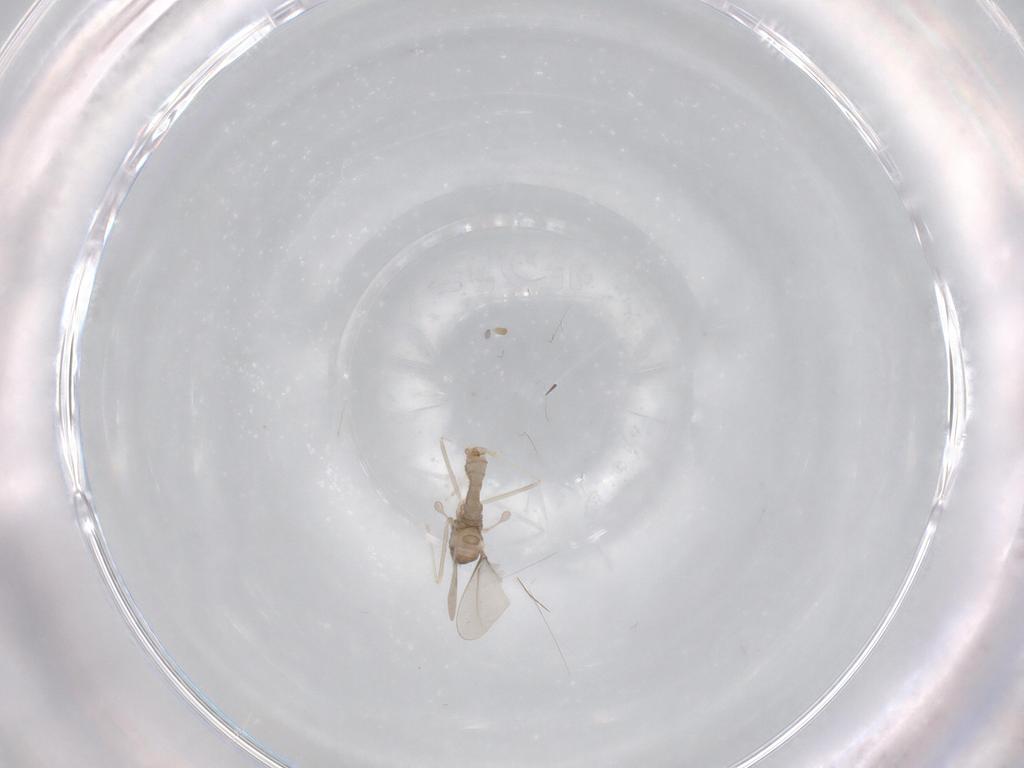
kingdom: Animalia
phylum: Arthropoda
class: Insecta
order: Diptera
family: Cecidomyiidae
